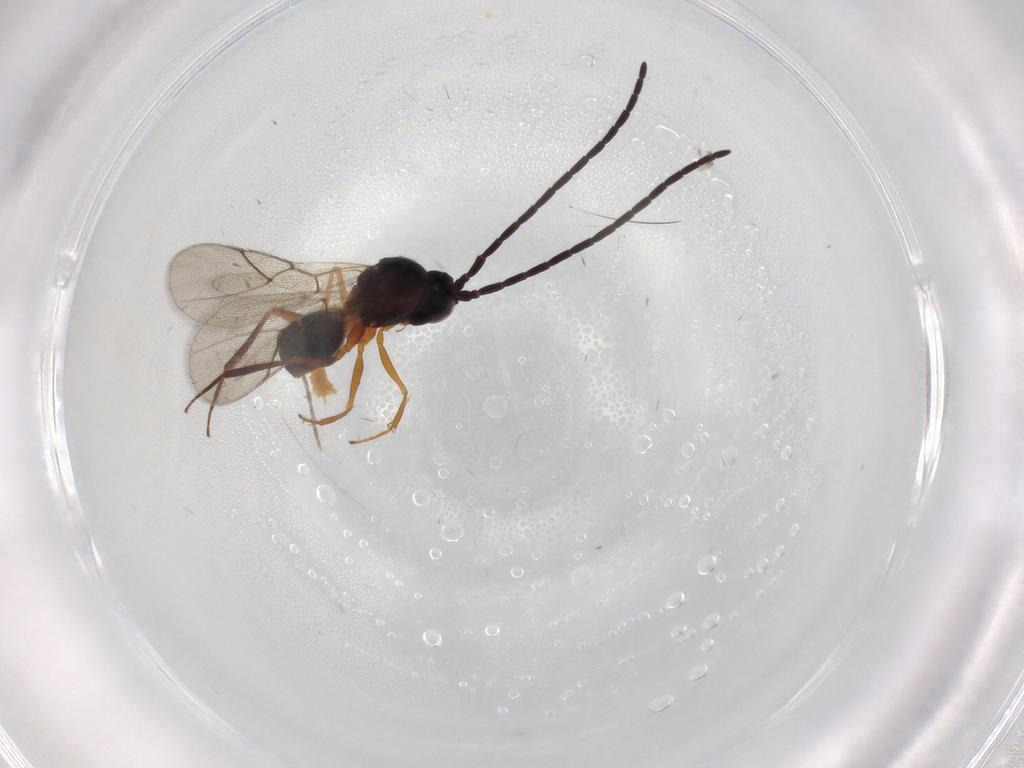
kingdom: Animalia
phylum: Arthropoda
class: Insecta
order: Hymenoptera
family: Figitidae
